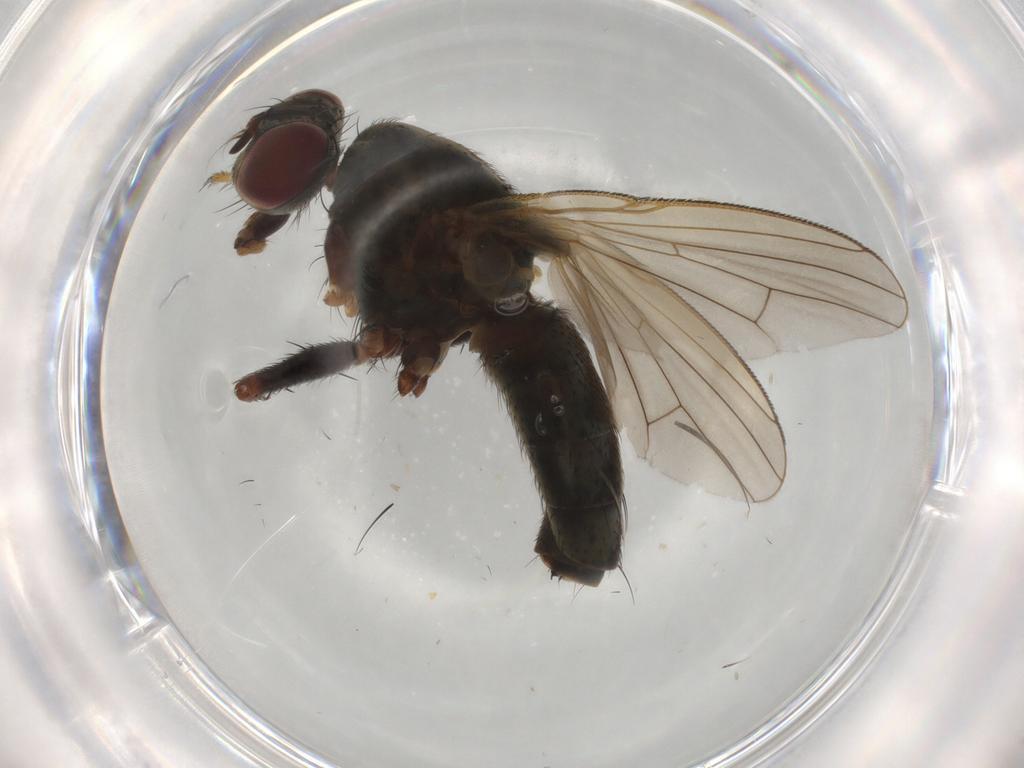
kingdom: Animalia
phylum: Arthropoda
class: Insecta
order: Diptera
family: Muscidae
